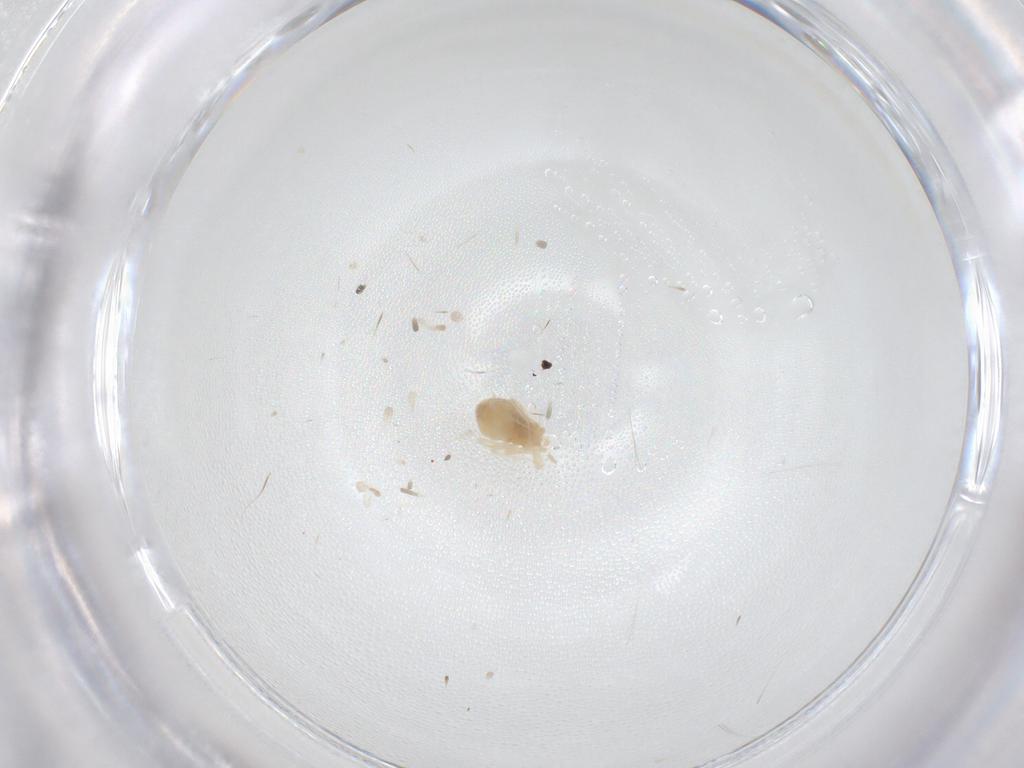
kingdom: Animalia
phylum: Arthropoda
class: Arachnida
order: Trombidiformes
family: Anystidae
